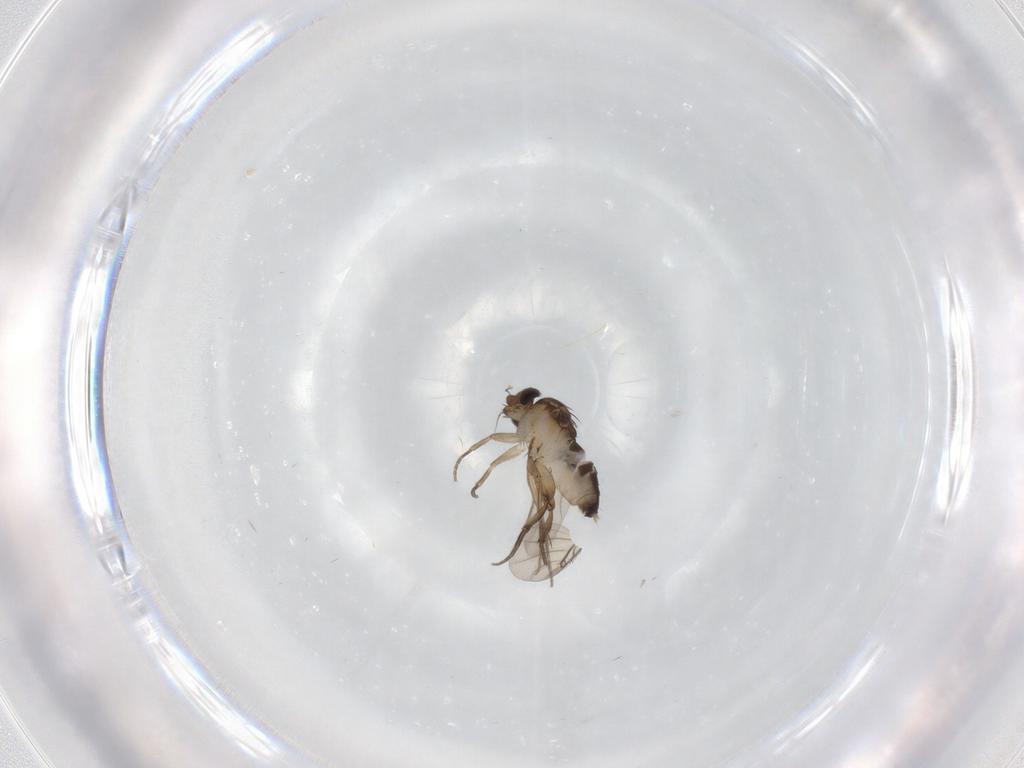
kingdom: Animalia
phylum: Arthropoda
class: Insecta
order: Diptera
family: Phoridae
